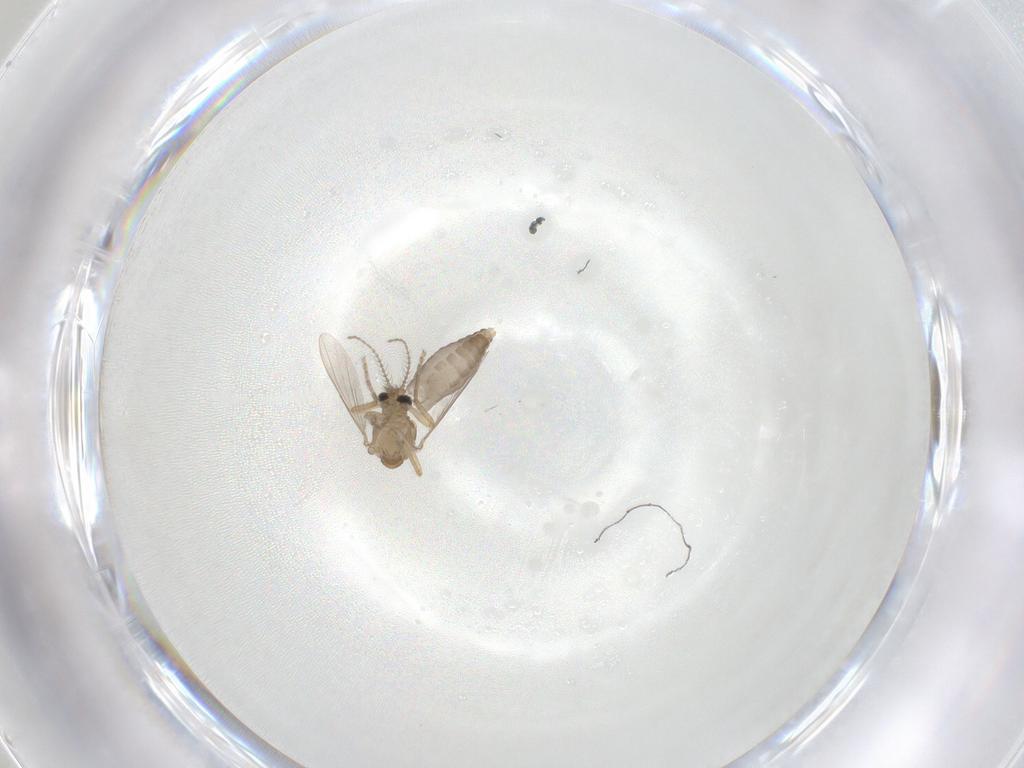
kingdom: Animalia
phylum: Arthropoda
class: Insecta
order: Diptera
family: Ceratopogonidae
